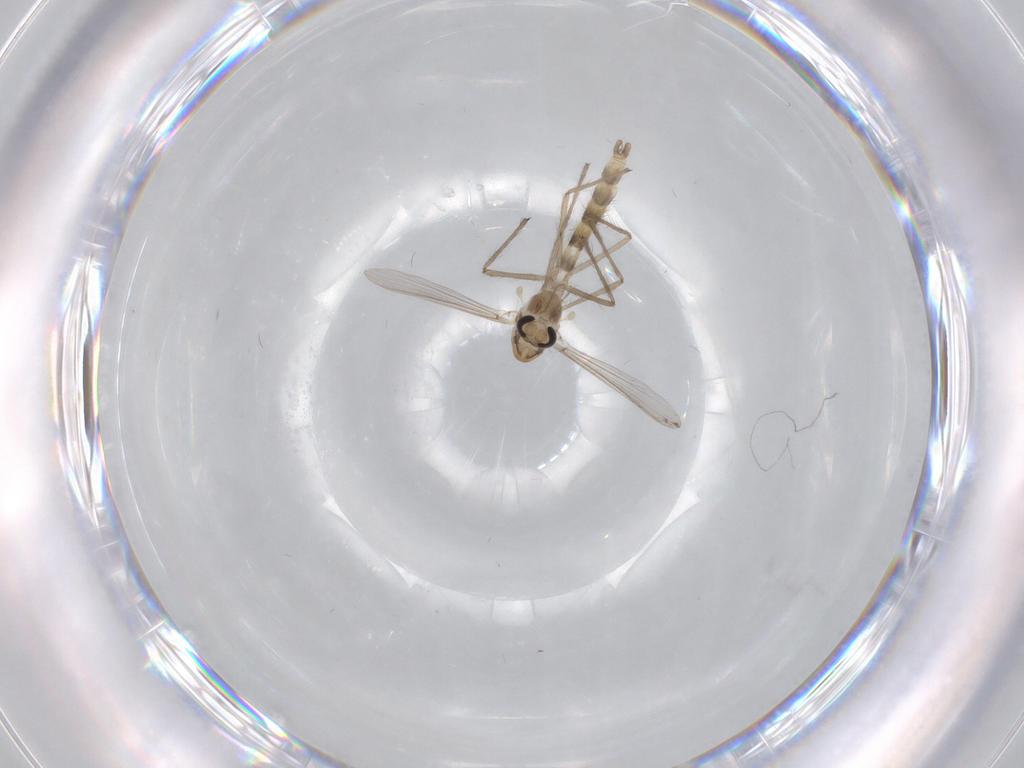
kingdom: Animalia
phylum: Arthropoda
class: Insecta
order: Diptera
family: Chironomidae
